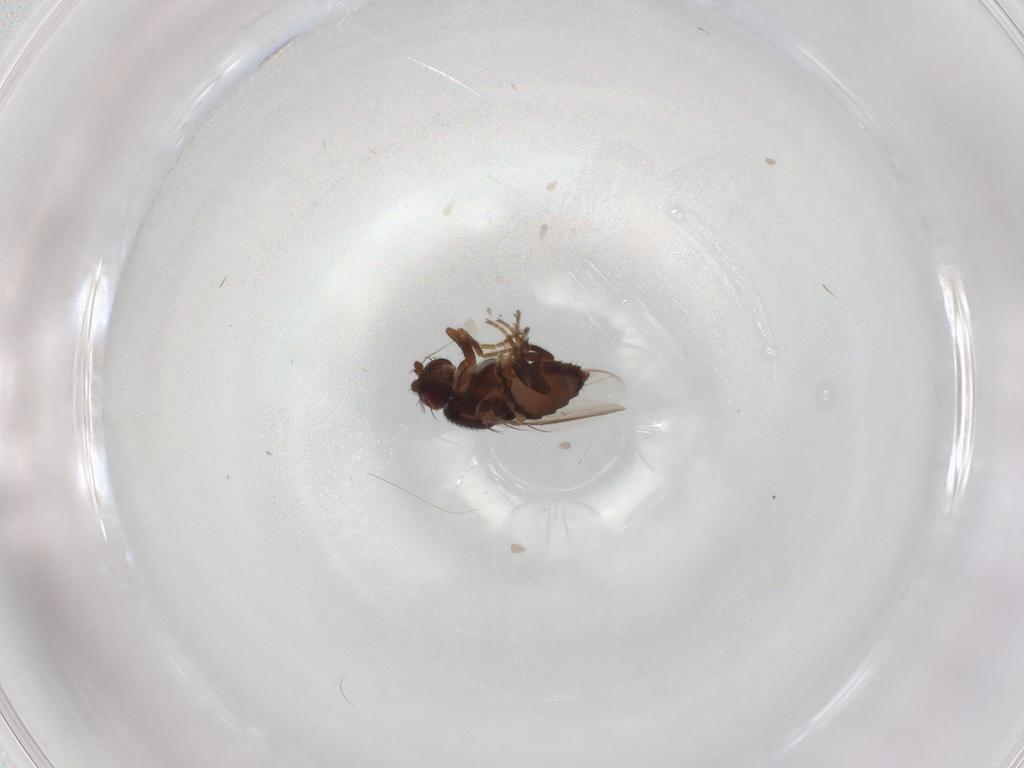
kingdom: Animalia
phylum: Arthropoda
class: Insecta
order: Diptera
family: Sphaeroceridae
